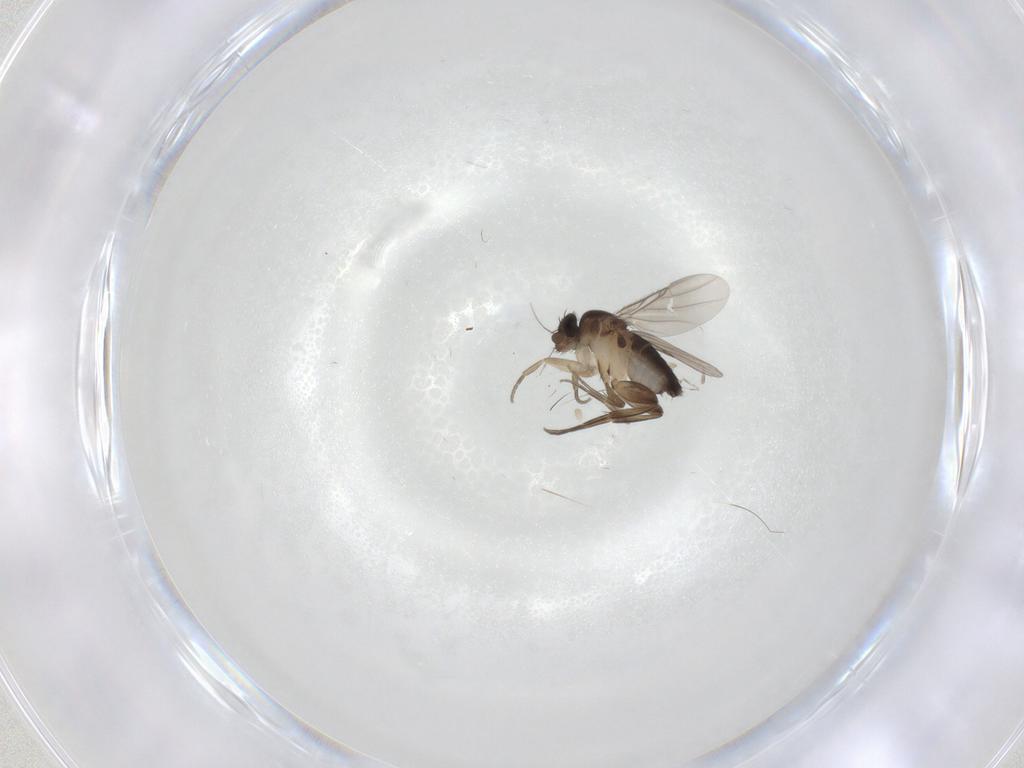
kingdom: Animalia
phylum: Arthropoda
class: Insecta
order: Diptera
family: Phoridae
